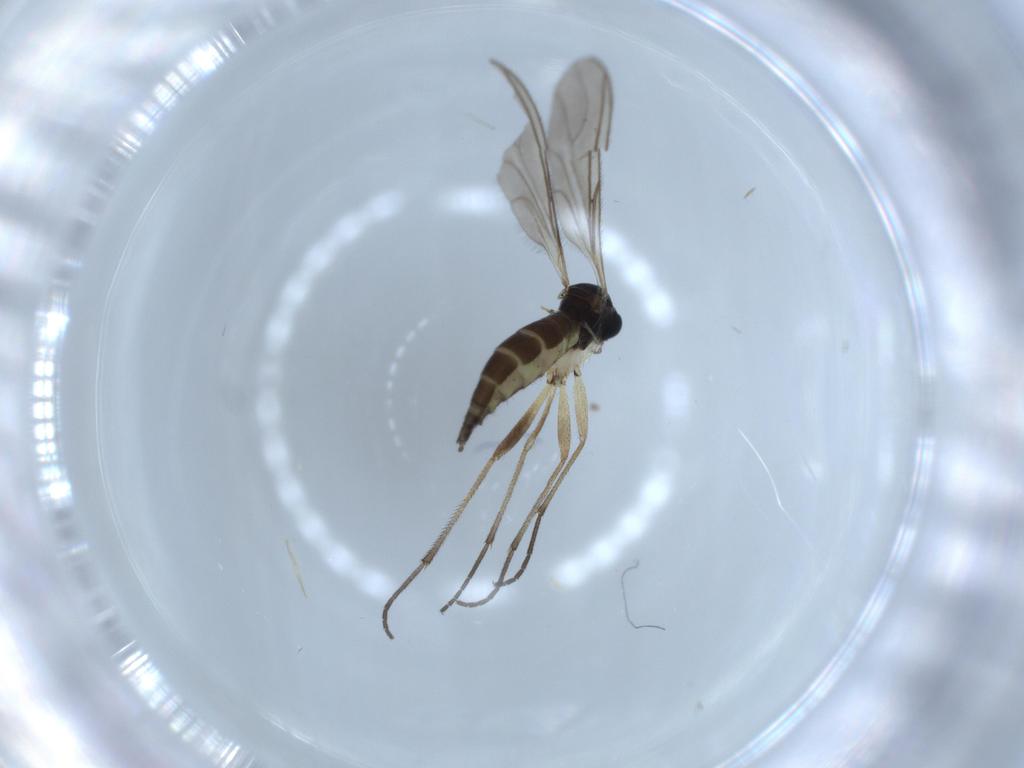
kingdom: Animalia
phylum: Arthropoda
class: Insecta
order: Diptera
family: Sciaridae
